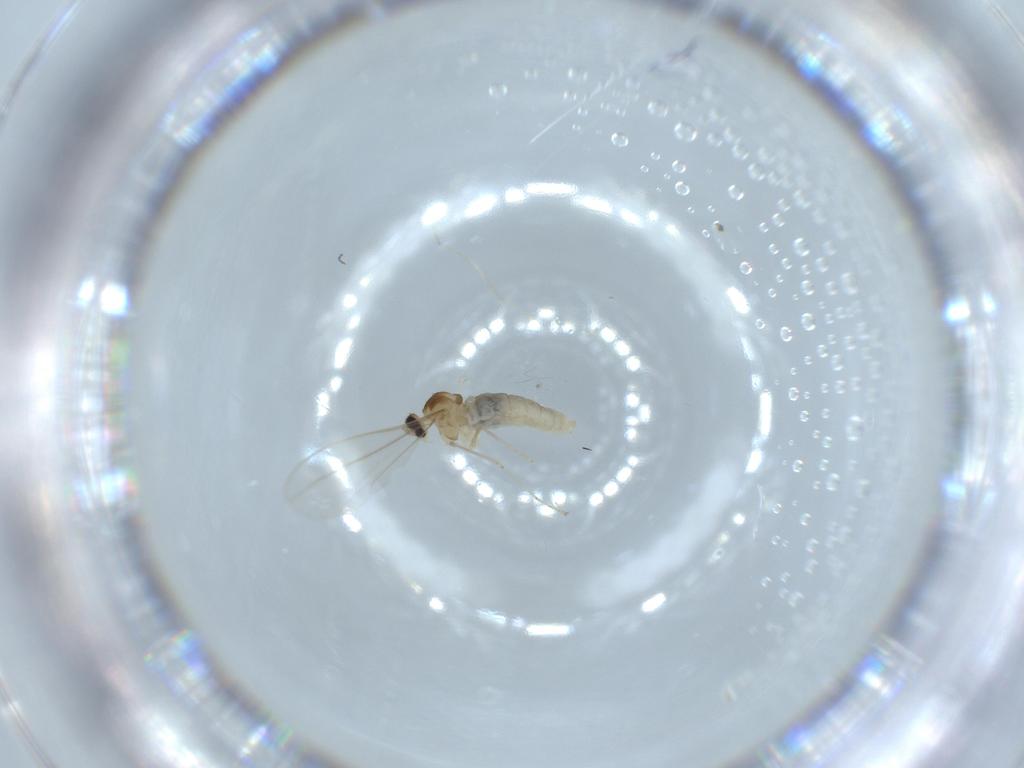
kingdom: Animalia
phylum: Arthropoda
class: Insecta
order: Diptera
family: Cecidomyiidae
